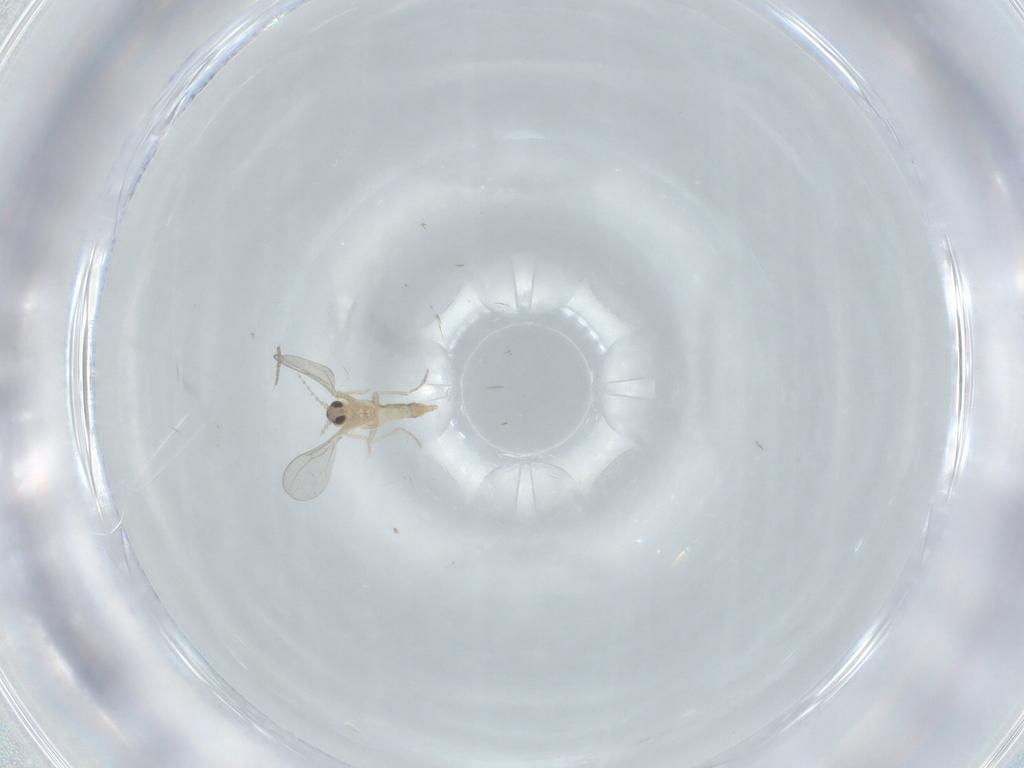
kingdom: Animalia
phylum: Arthropoda
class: Insecta
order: Diptera
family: Cecidomyiidae
